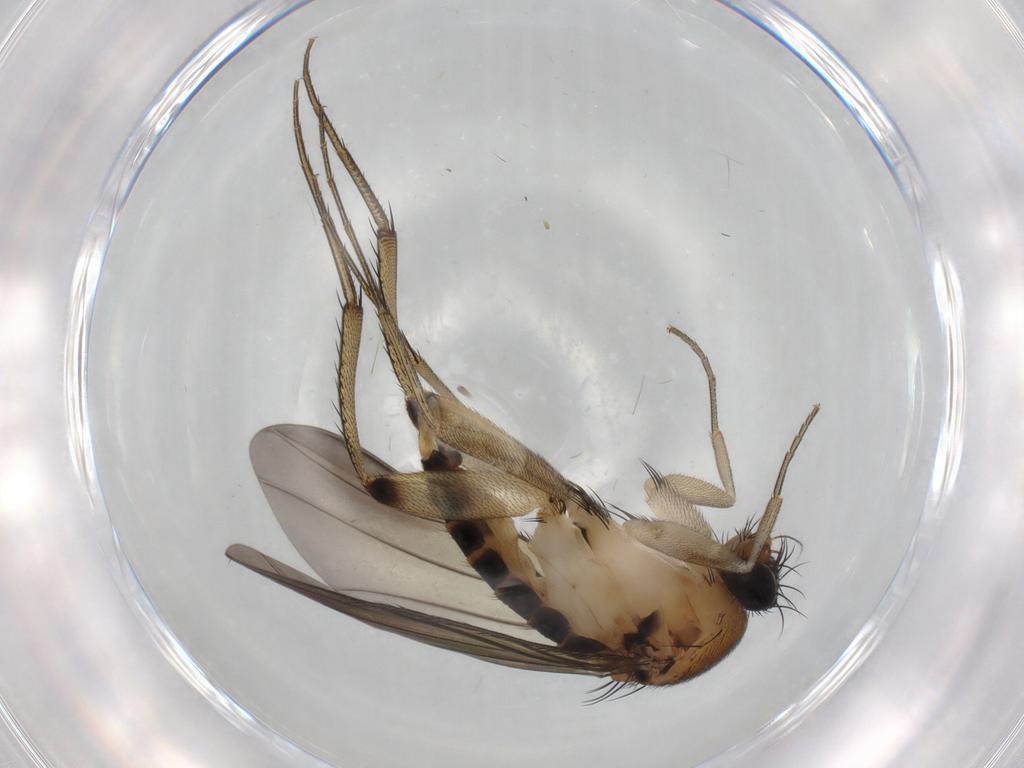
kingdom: Animalia
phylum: Arthropoda
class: Insecta
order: Diptera
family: Phoridae
